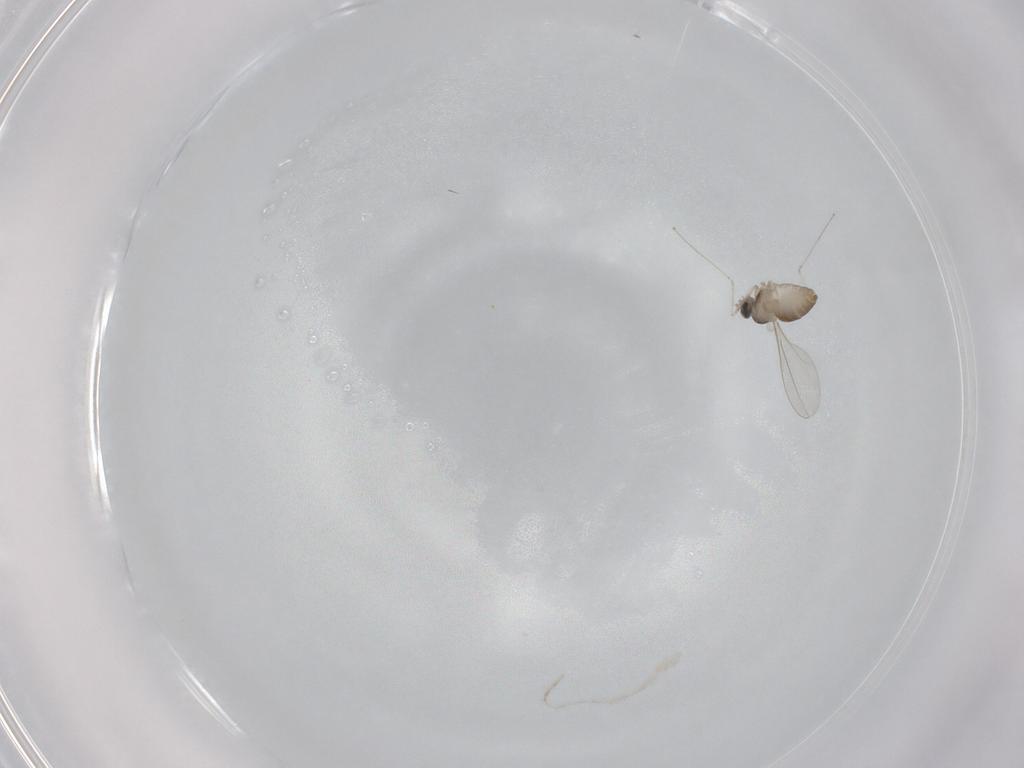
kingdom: Animalia
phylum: Arthropoda
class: Insecta
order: Diptera
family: Cecidomyiidae
